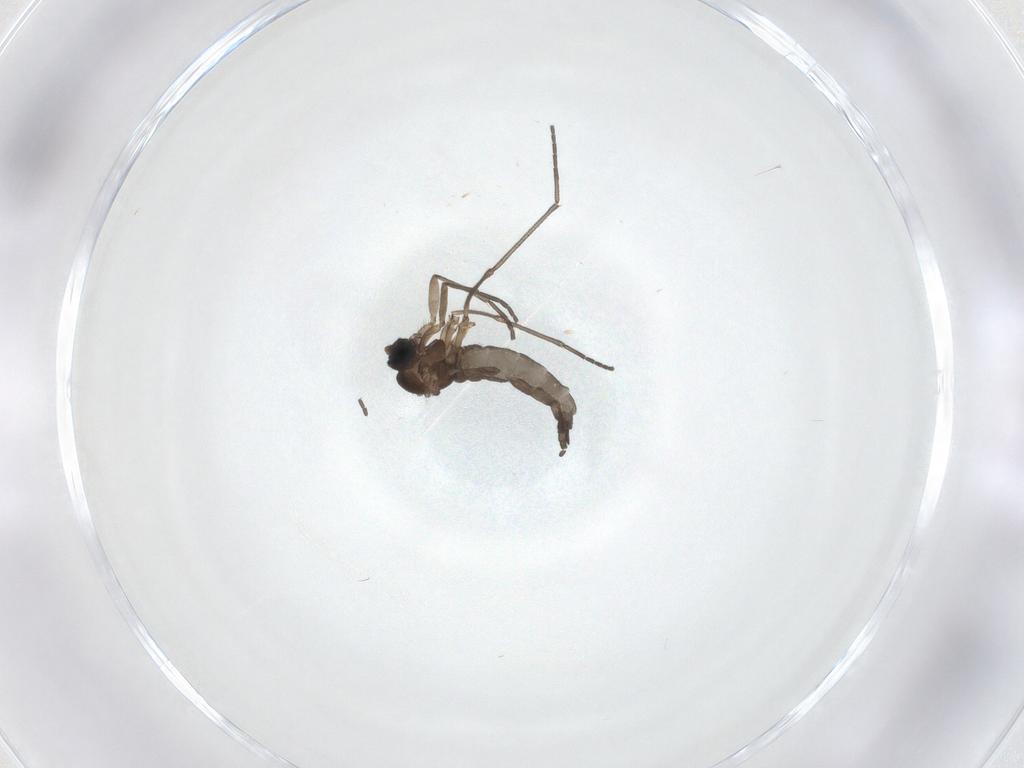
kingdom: Animalia
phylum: Arthropoda
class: Insecta
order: Diptera
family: Sciaridae
